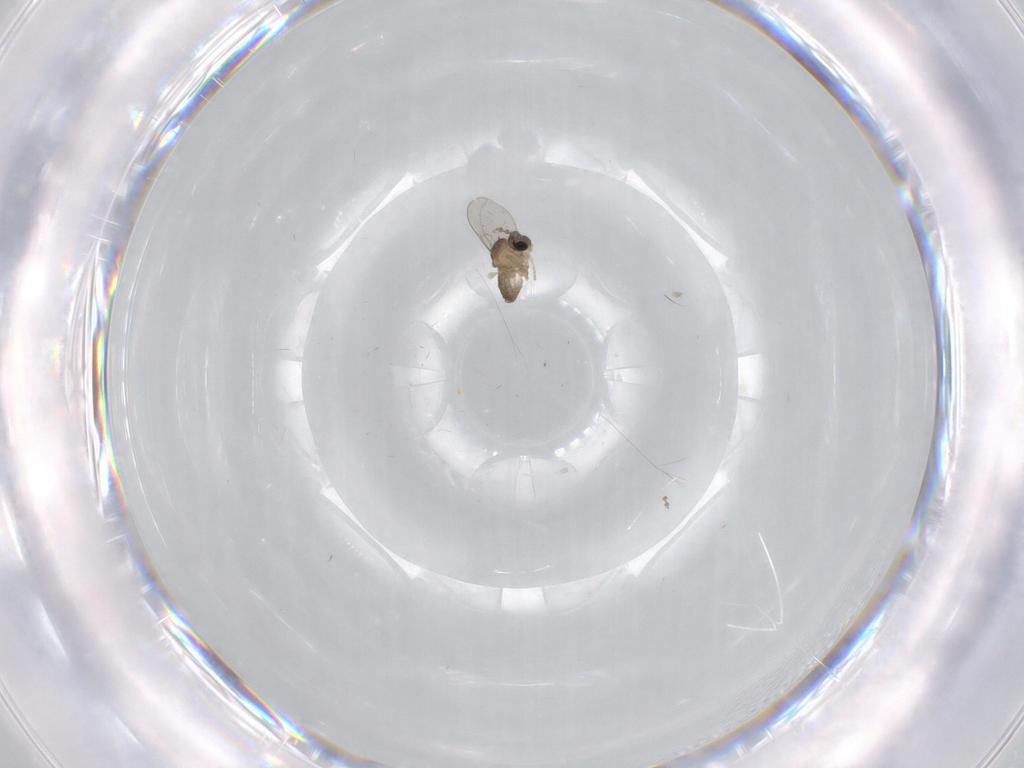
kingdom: Animalia
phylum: Arthropoda
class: Insecta
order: Diptera
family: Cecidomyiidae
